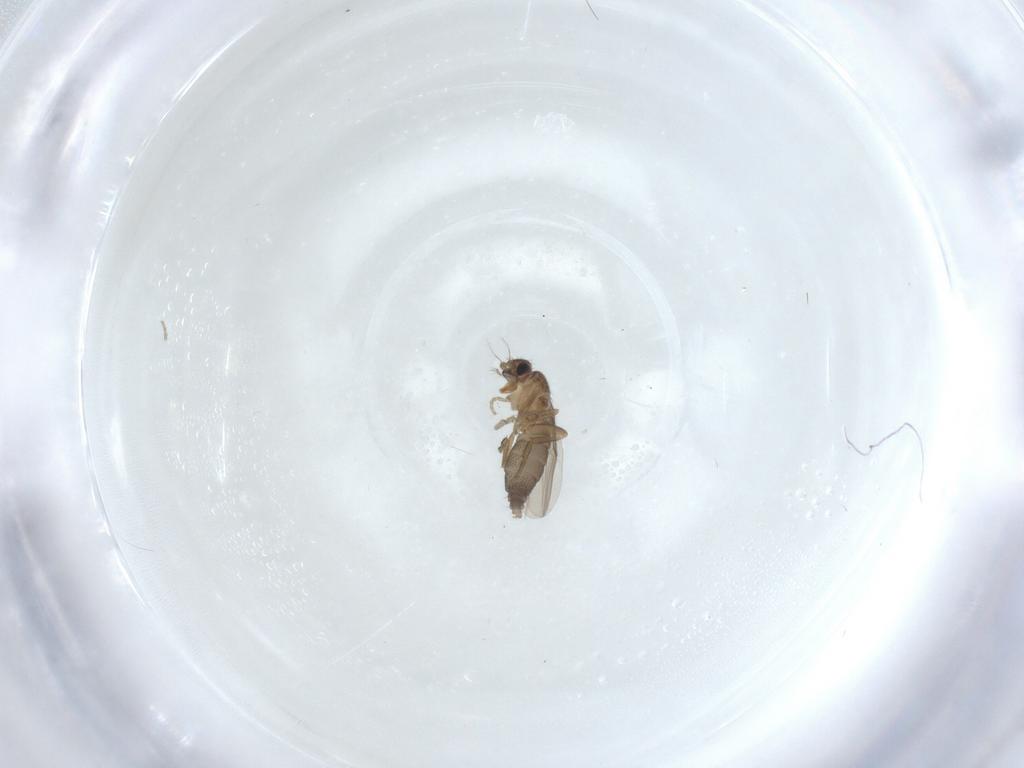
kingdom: Animalia
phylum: Arthropoda
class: Insecta
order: Diptera
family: Phoridae
